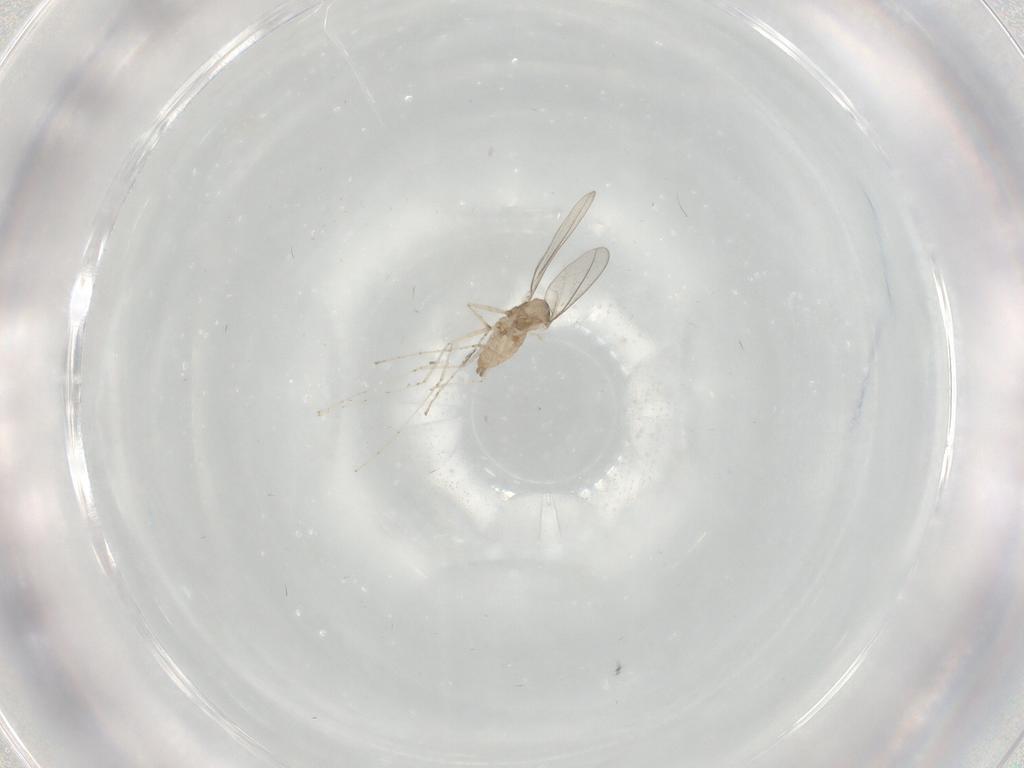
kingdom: Animalia
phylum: Arthropoda
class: Insecta
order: Diptera
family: Cecidomyiidae
